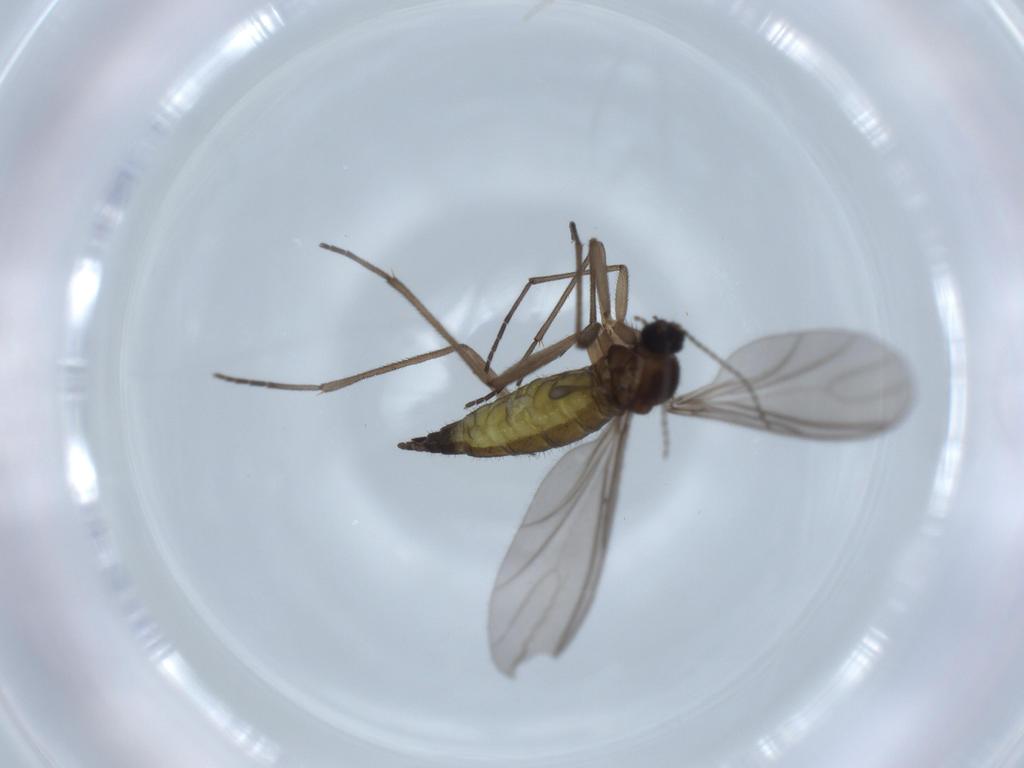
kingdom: Animalia
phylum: Arthropoda
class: Insecta
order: Diptera
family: Sciaridae
